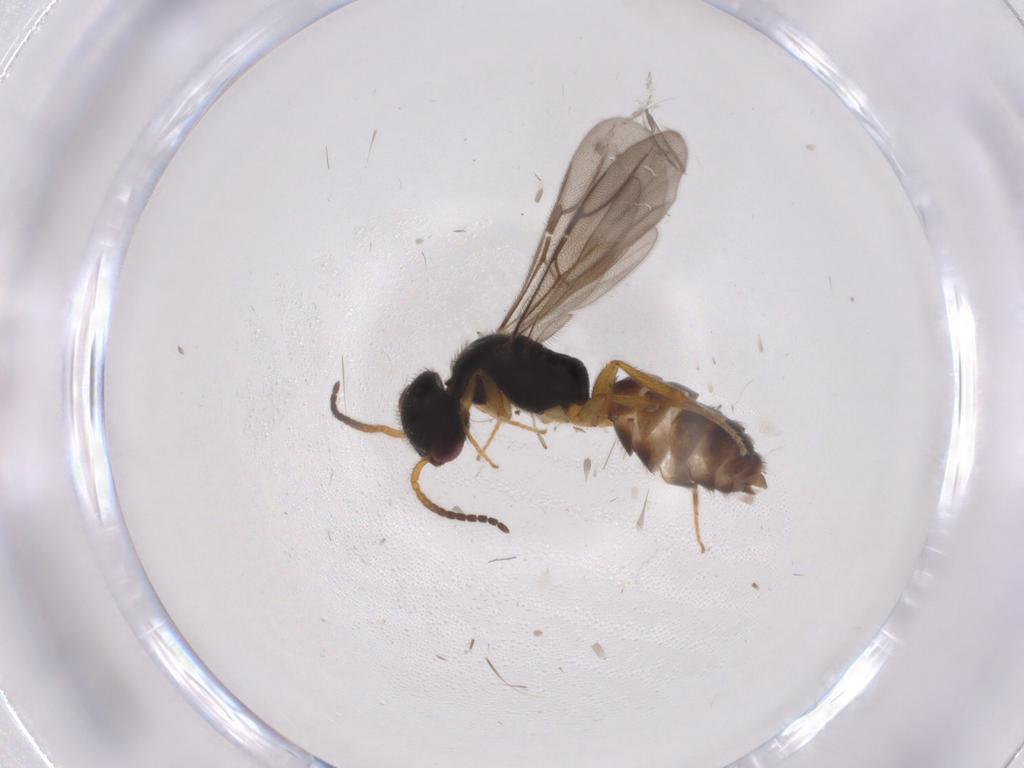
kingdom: Animalia
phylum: Arthropoda
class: Insecta
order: Hymenoptera
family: Bethylidae
